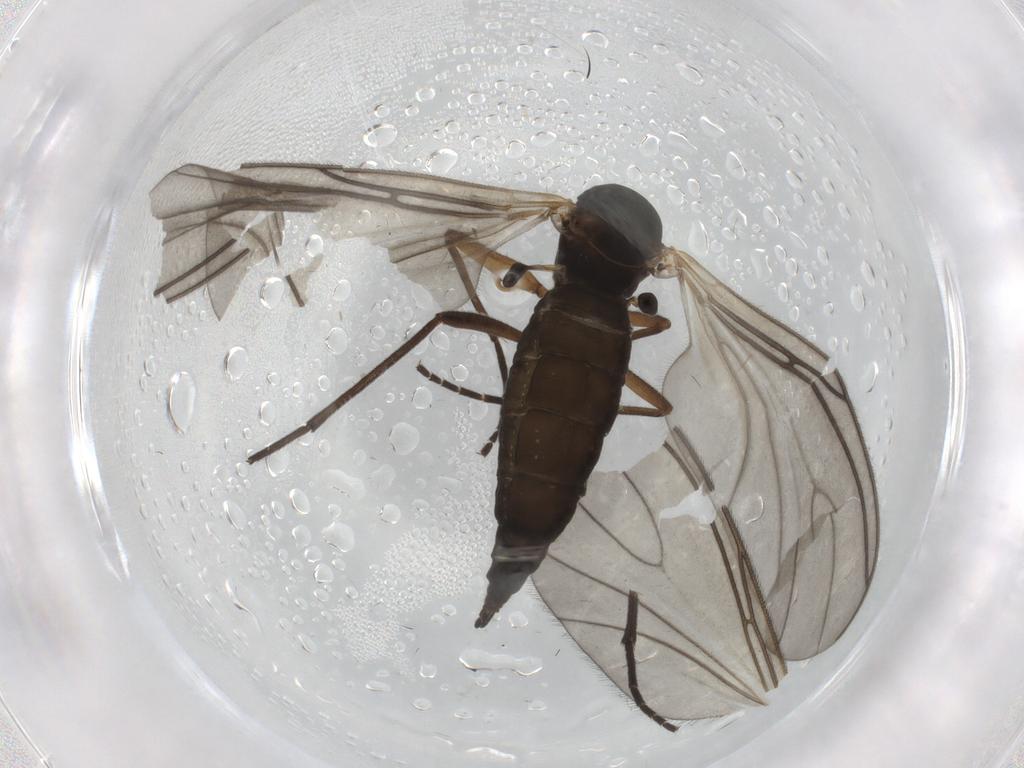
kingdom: Animalia
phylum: Arthropoda
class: Insecta
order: Diptera
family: Sciaridae
